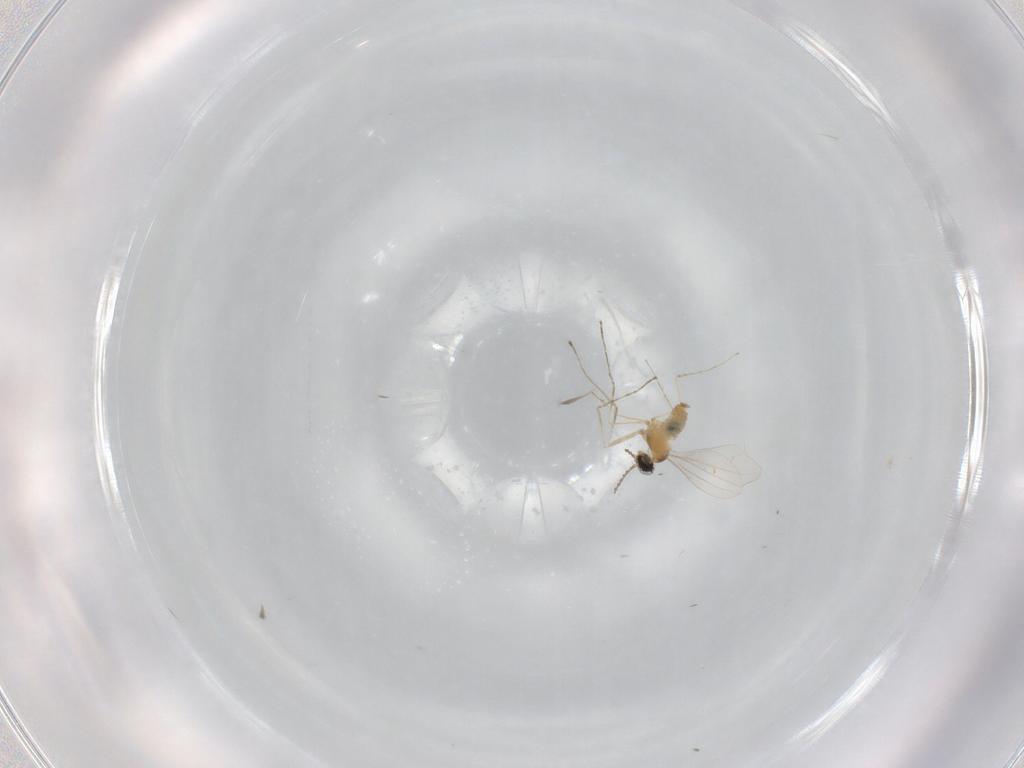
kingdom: Animalia
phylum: Arthropoda
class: Insecta
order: Diptera
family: Cecidomyiidae
